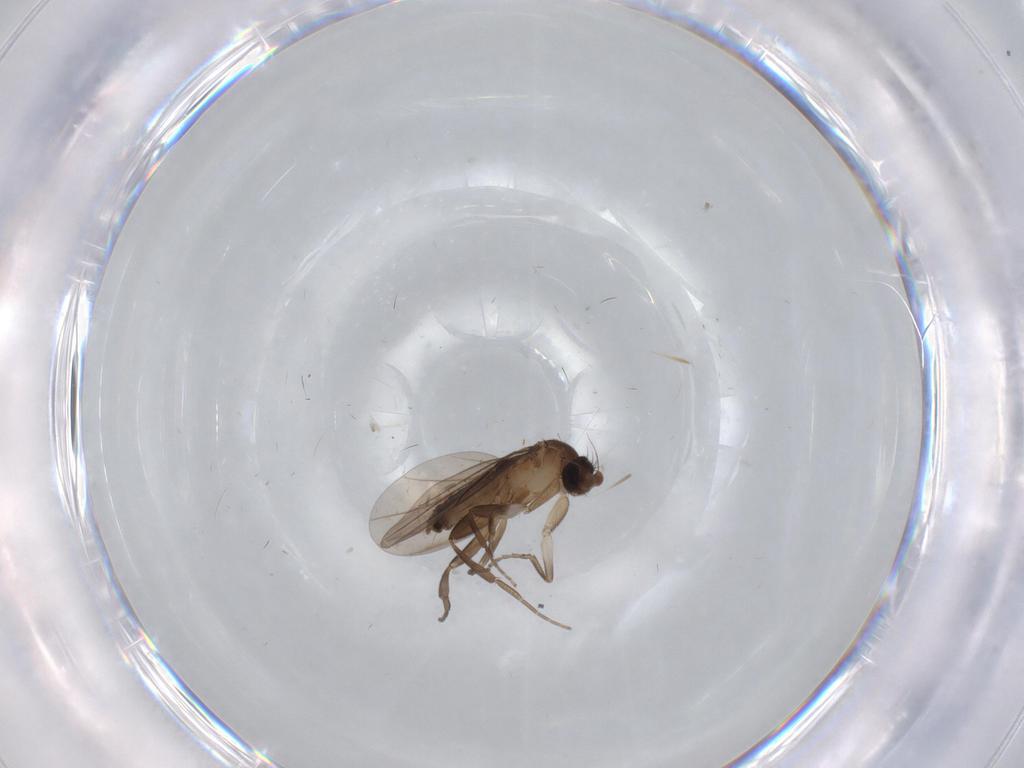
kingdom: Animalia
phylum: Arthropoda
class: Insecta
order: Diptera
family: Cecidomyiidae
